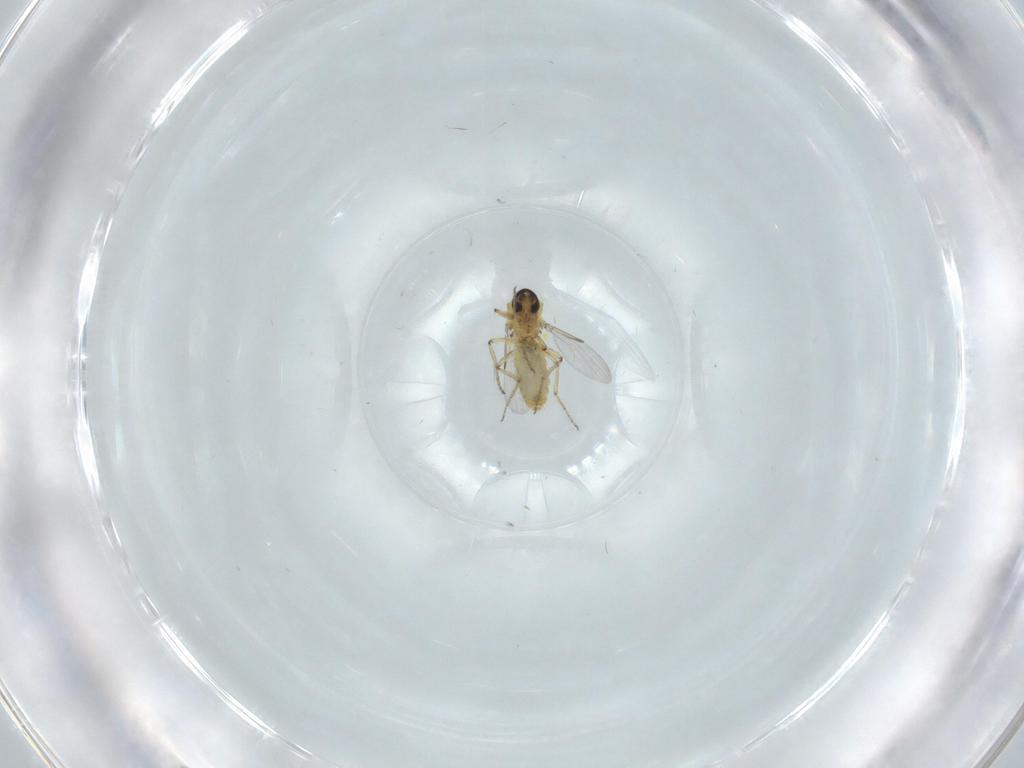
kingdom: Animalia
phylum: Arthropoda
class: Insecta
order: Diptera
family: Ceratopogonidae
